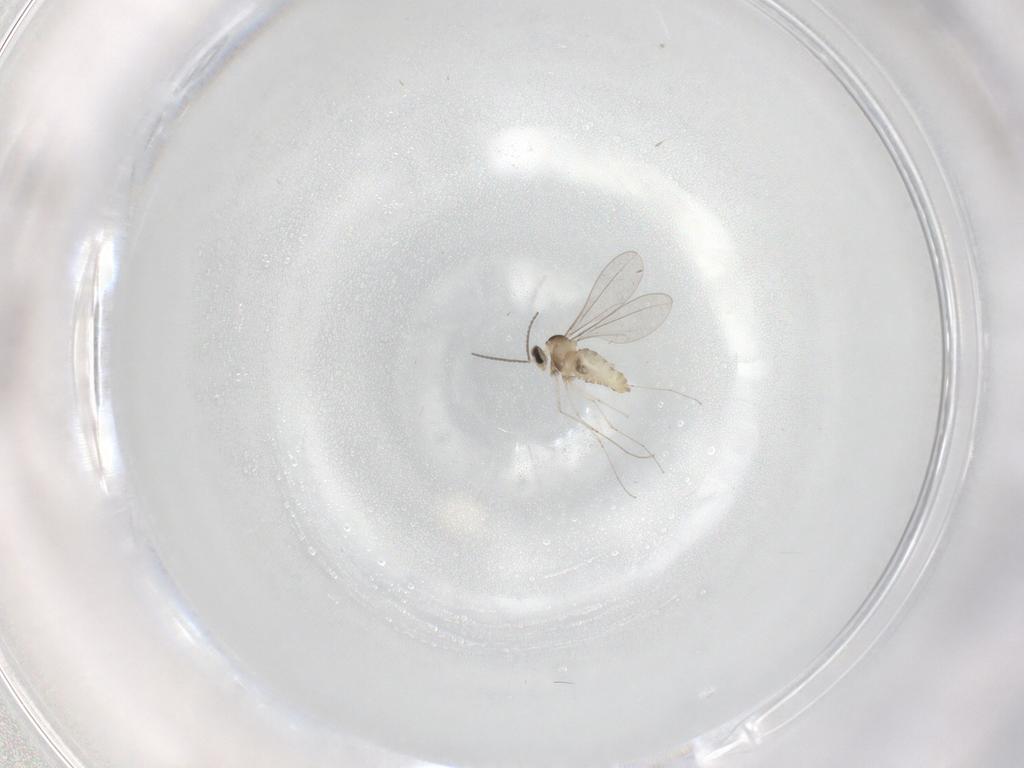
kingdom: Animalia
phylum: Arthropoda
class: Insecta
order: Diptera
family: Cecidomyiidae
